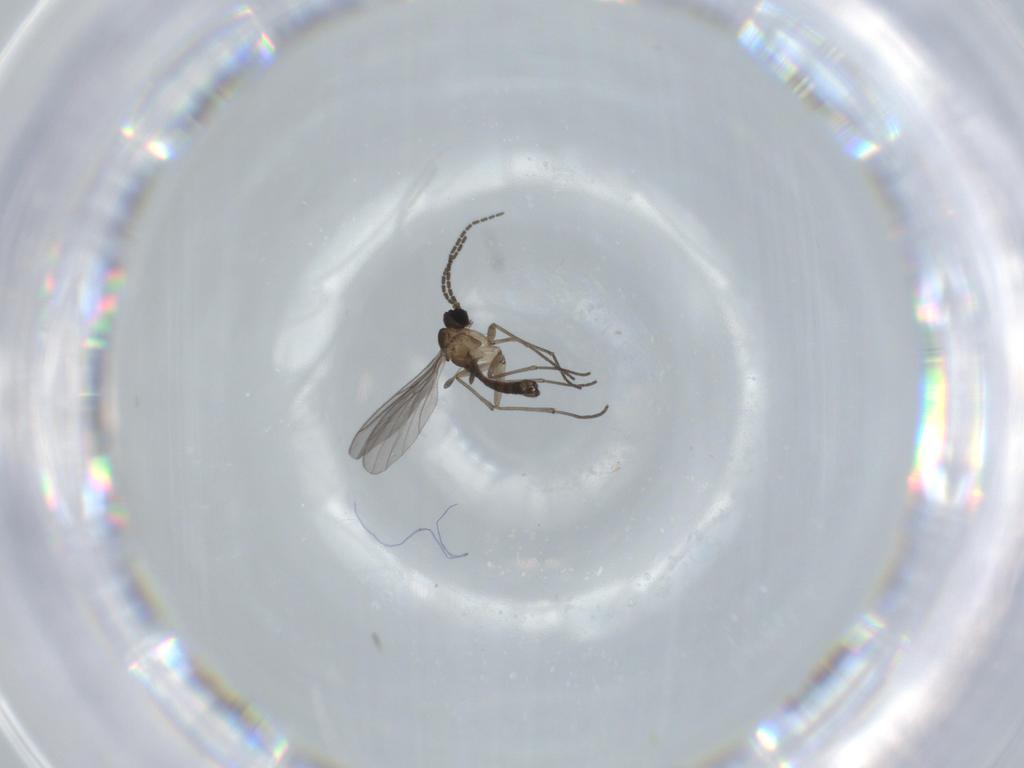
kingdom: Animalia
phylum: Arthropoda
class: Insecta
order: Diptera
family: Sciaridae
